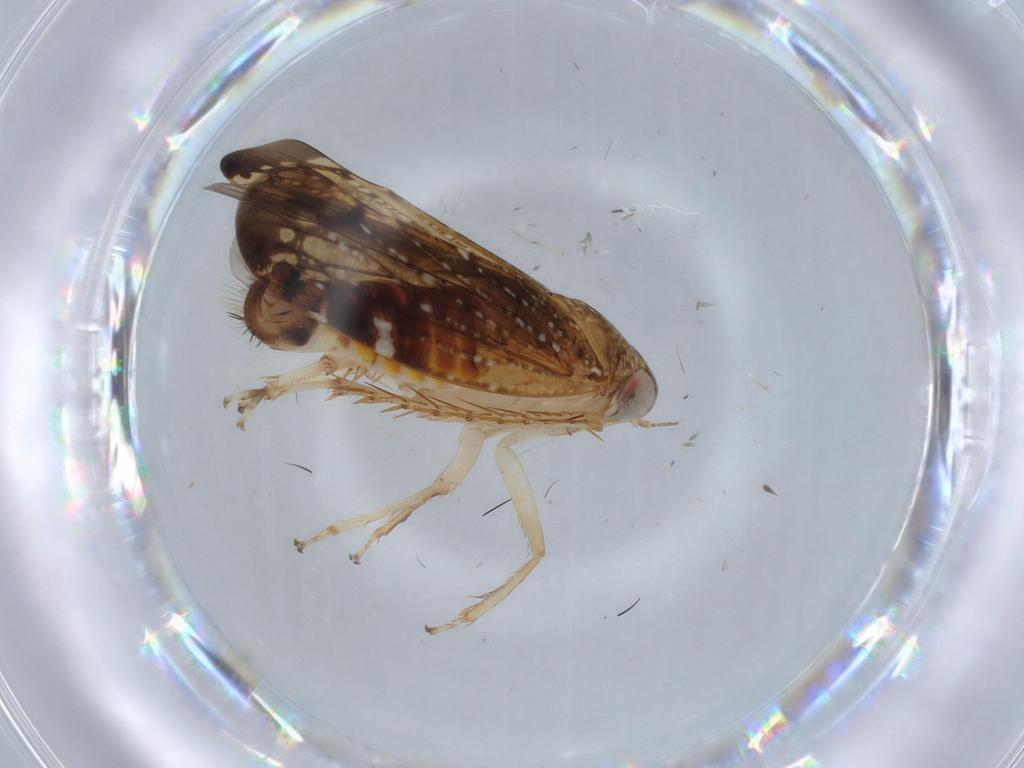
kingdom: Animalia
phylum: Arthropoda
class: Insecta
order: Hemiptera
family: Cicadellidae
